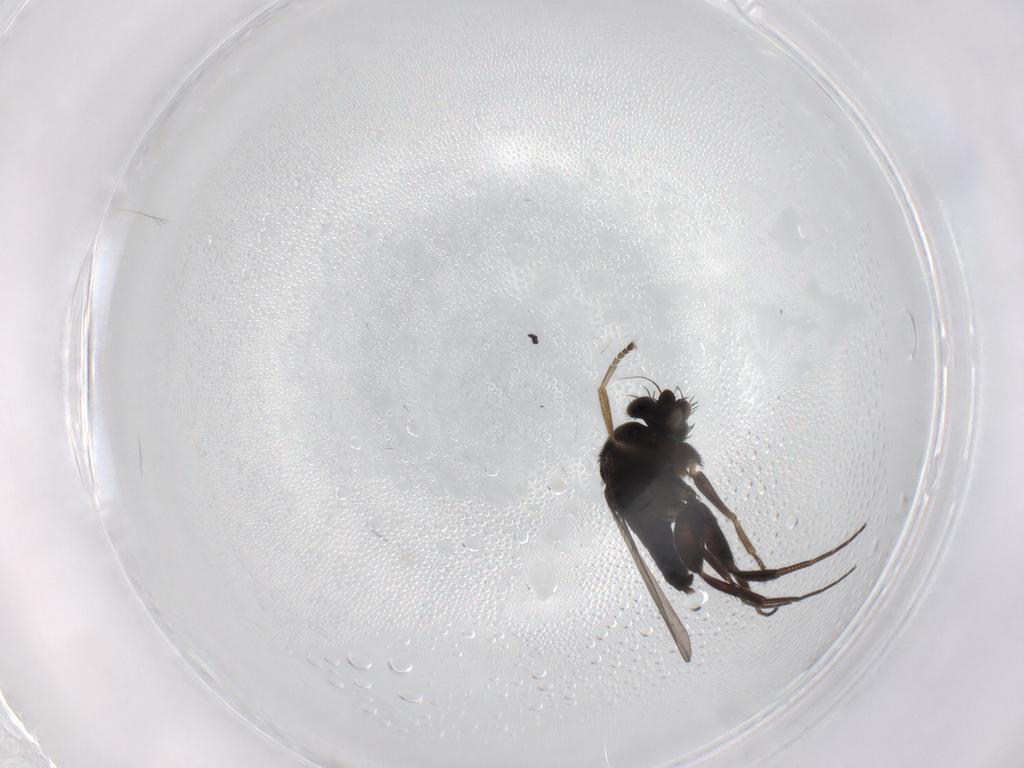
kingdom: Animalia
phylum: Arthropoda
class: Insecta
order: Diptera
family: Phoridae
